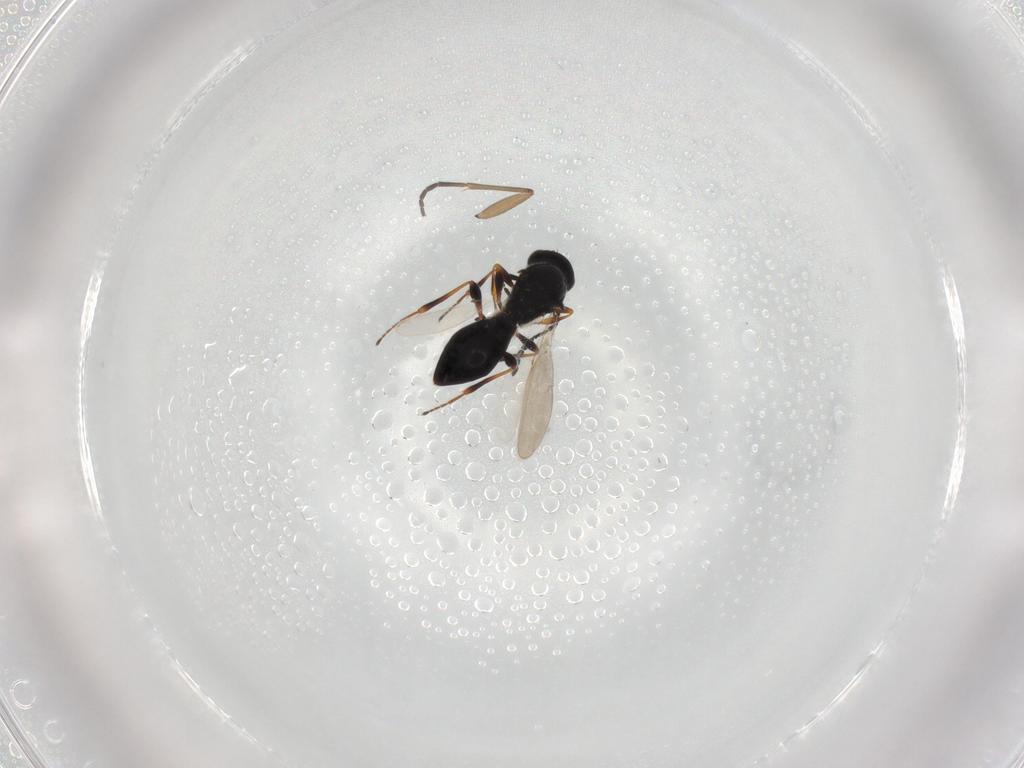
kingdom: Animalia
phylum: Arthropoda
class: Insecta
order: Hymenoptera
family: Platygastridae
